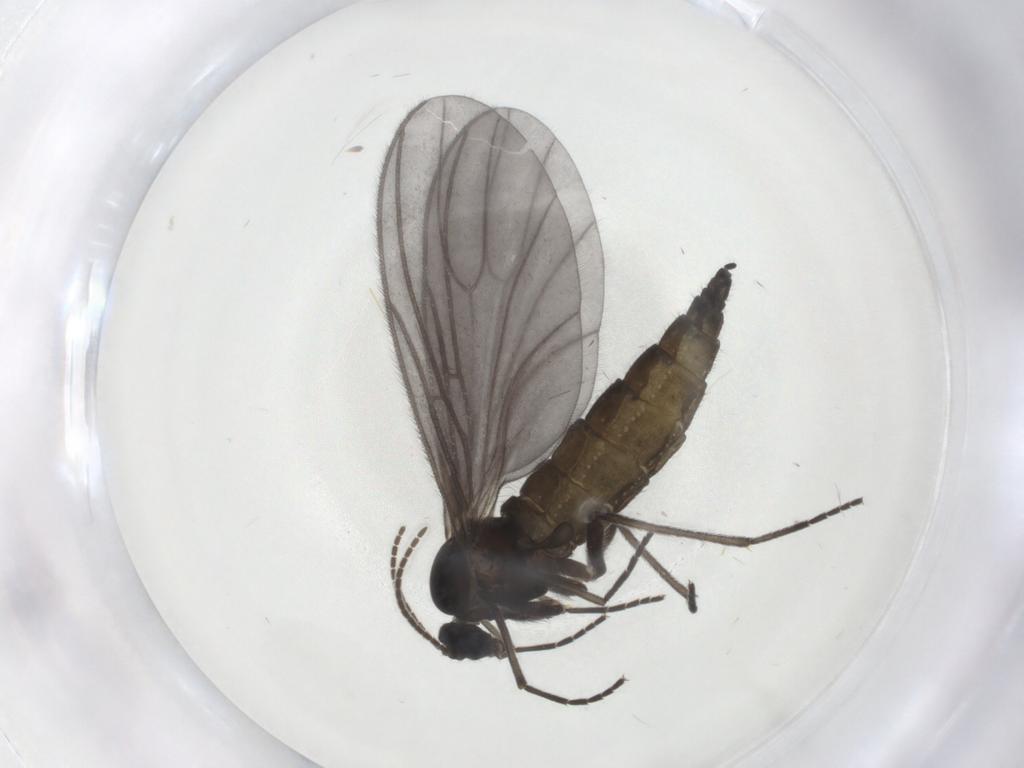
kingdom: Animalia
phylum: Arthropoda
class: Insecta
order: Diptera
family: Sciaridae
